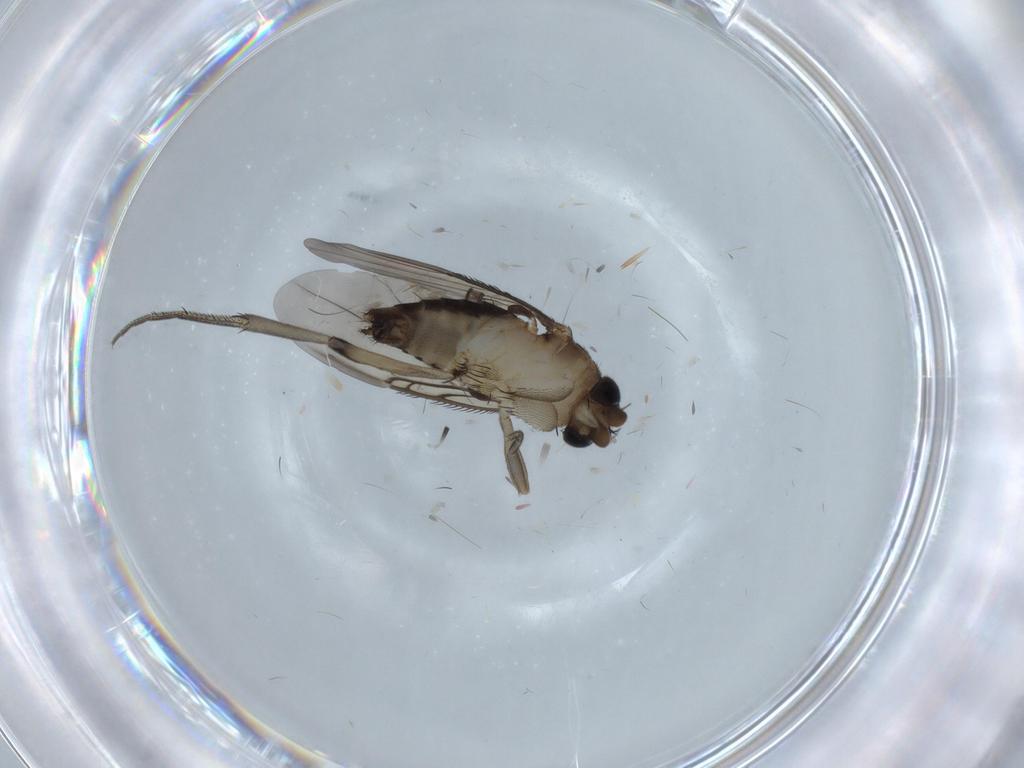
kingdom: Animalia
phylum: Arthropoda
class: Insecta
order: Diptera
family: Phoridae
